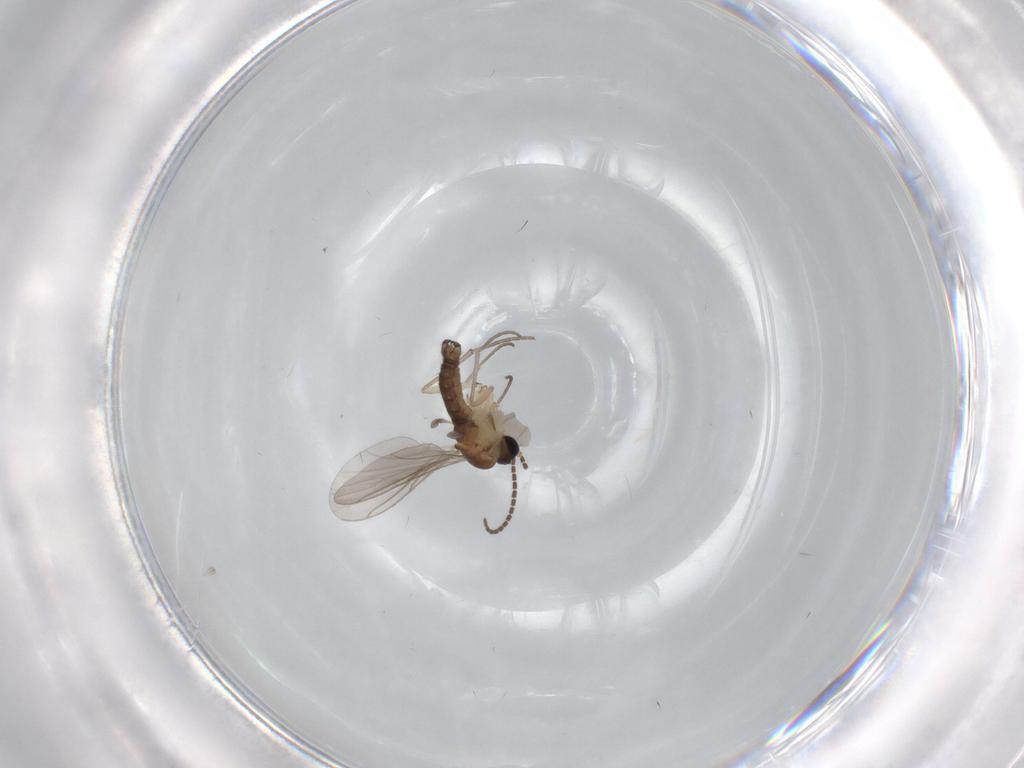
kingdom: Animalia
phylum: Arthropoda
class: Insecta
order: Diptera
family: Sciaridae
